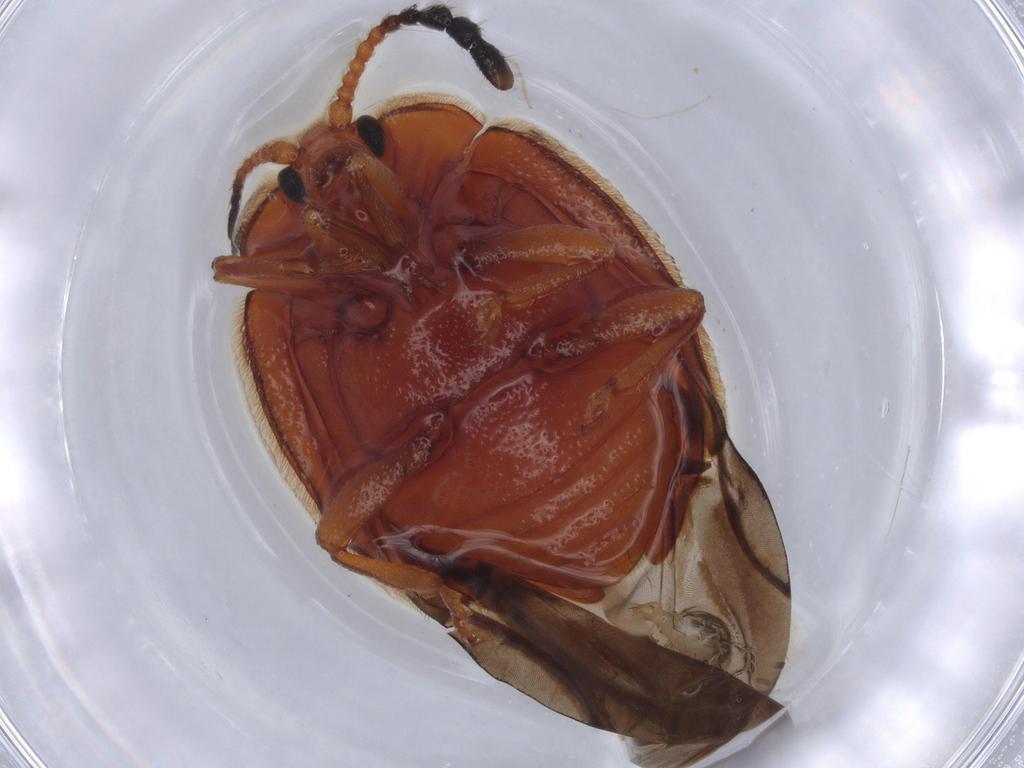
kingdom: Animalia
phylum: Arthropoda
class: Insecta
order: Coleoptera
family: Endomychidae
